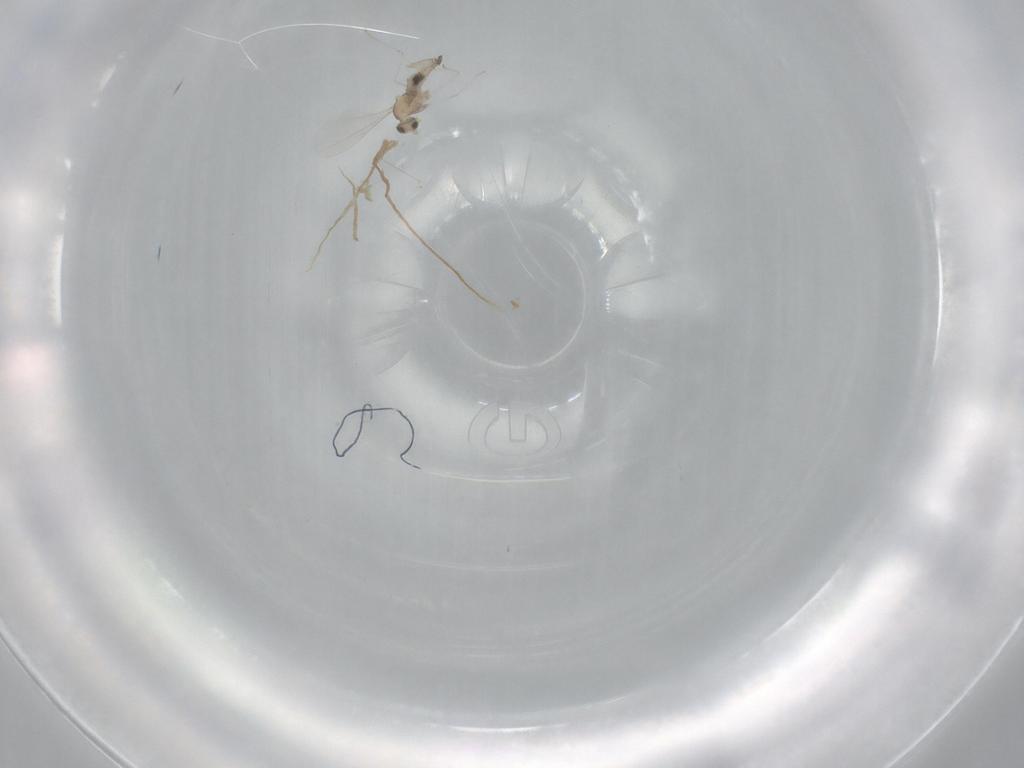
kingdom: Animalia
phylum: Arthropoda
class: Insecta
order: Diptera
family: Cecidomyiidae
